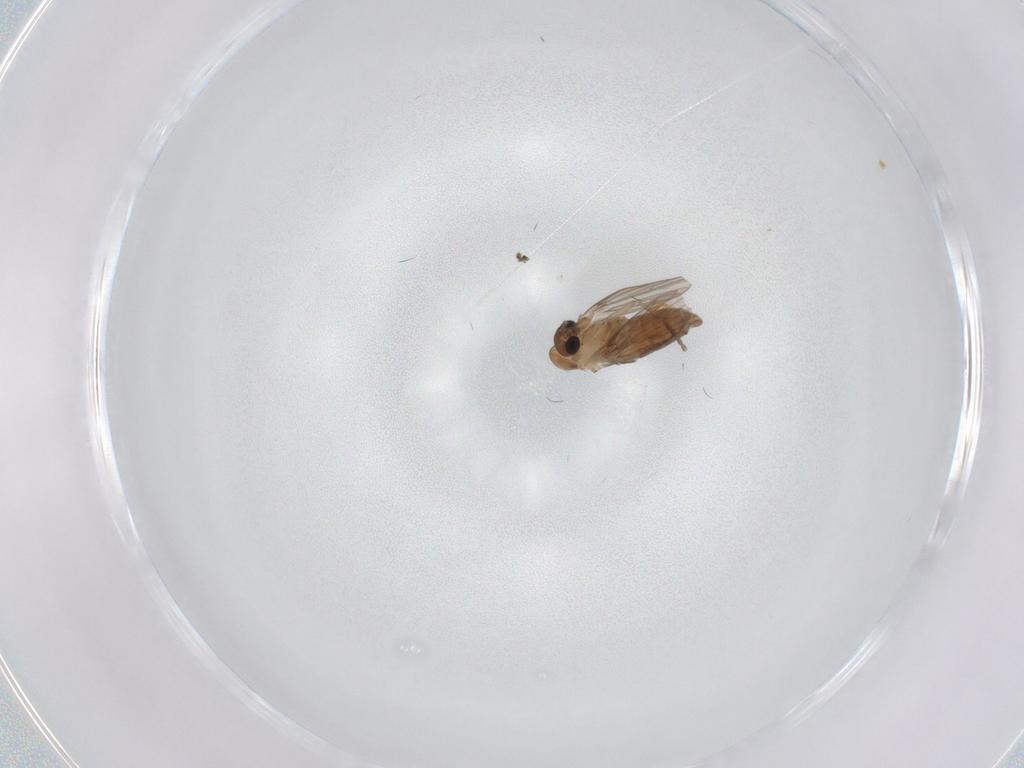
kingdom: Animalia
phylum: Arthropoda
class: Insecta
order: Diptera
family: Psychodidae
